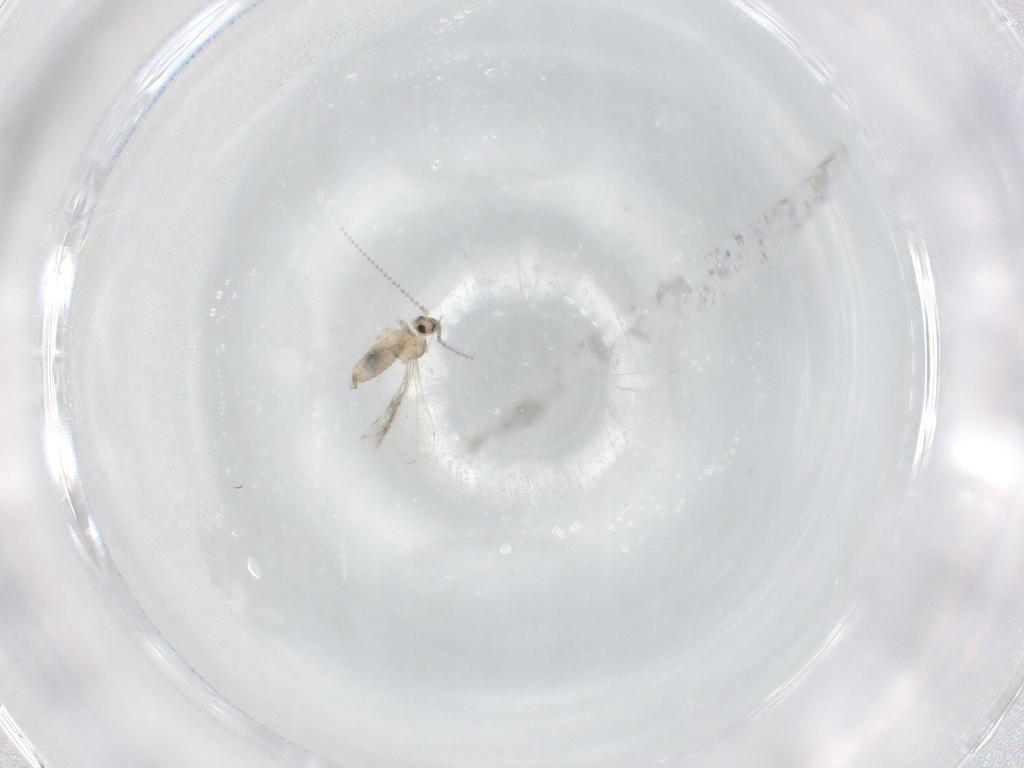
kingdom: Animalia
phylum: Arthropoda
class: Insecta
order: Diptera
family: Cecidomyiidae
